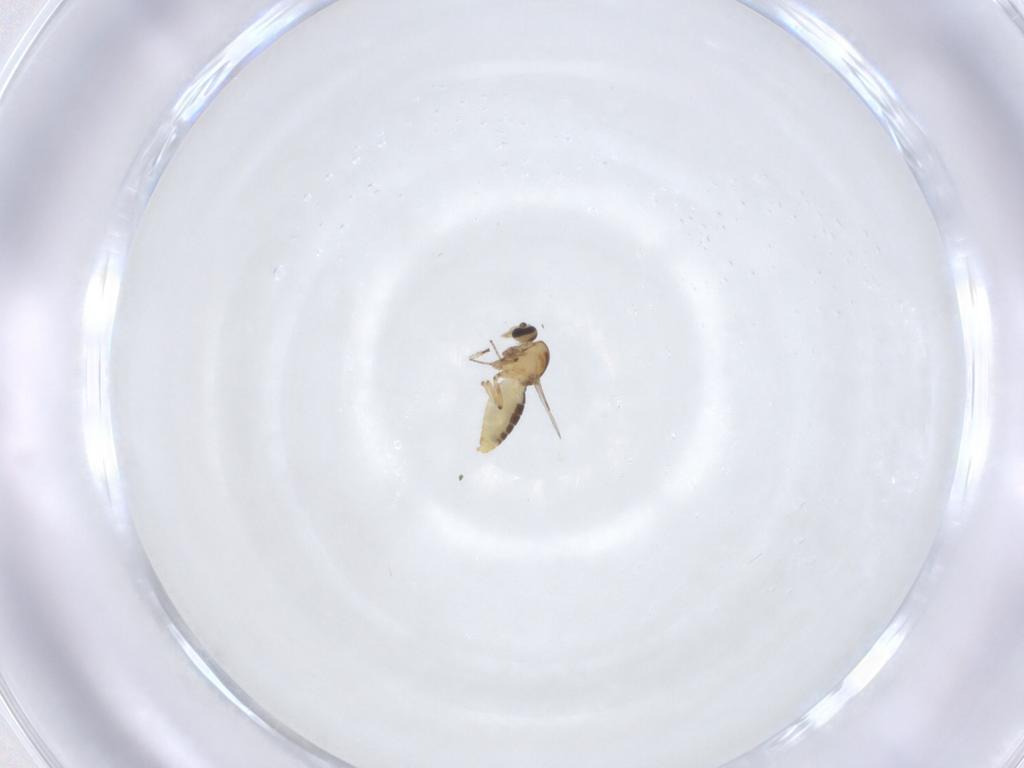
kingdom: Animalia
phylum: Arthropoda
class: Insecta
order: Diptera
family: Ceratopogonidae
